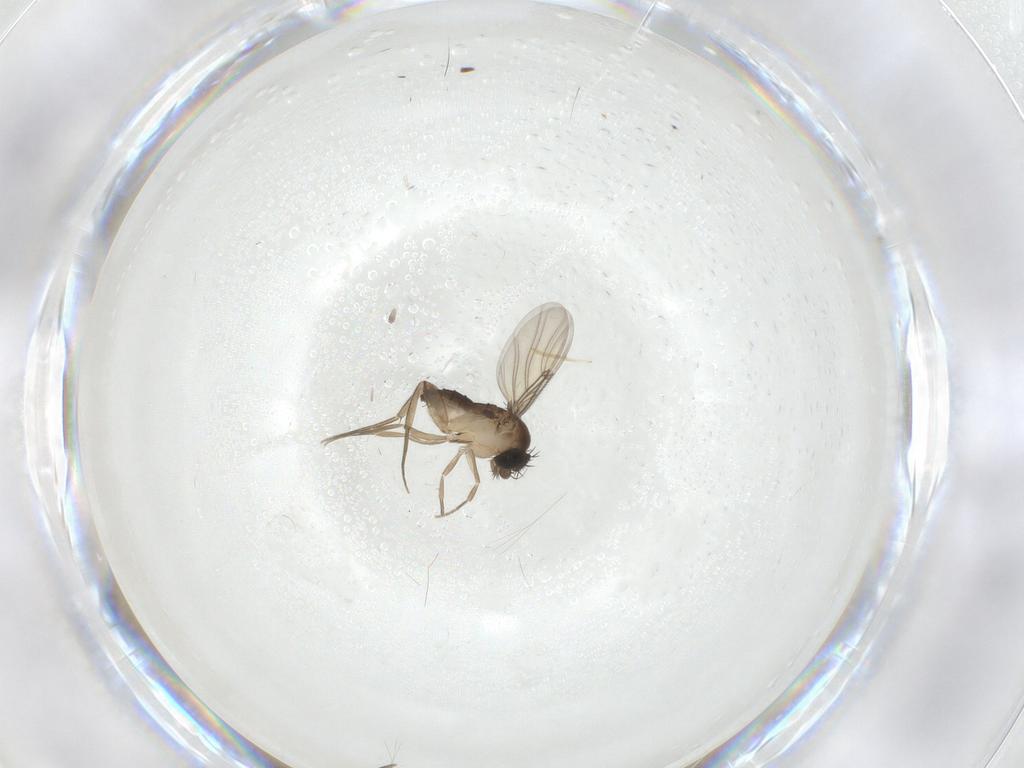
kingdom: Animalia
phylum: Arthropoda
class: Insecta
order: Diptera
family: Phoridae
